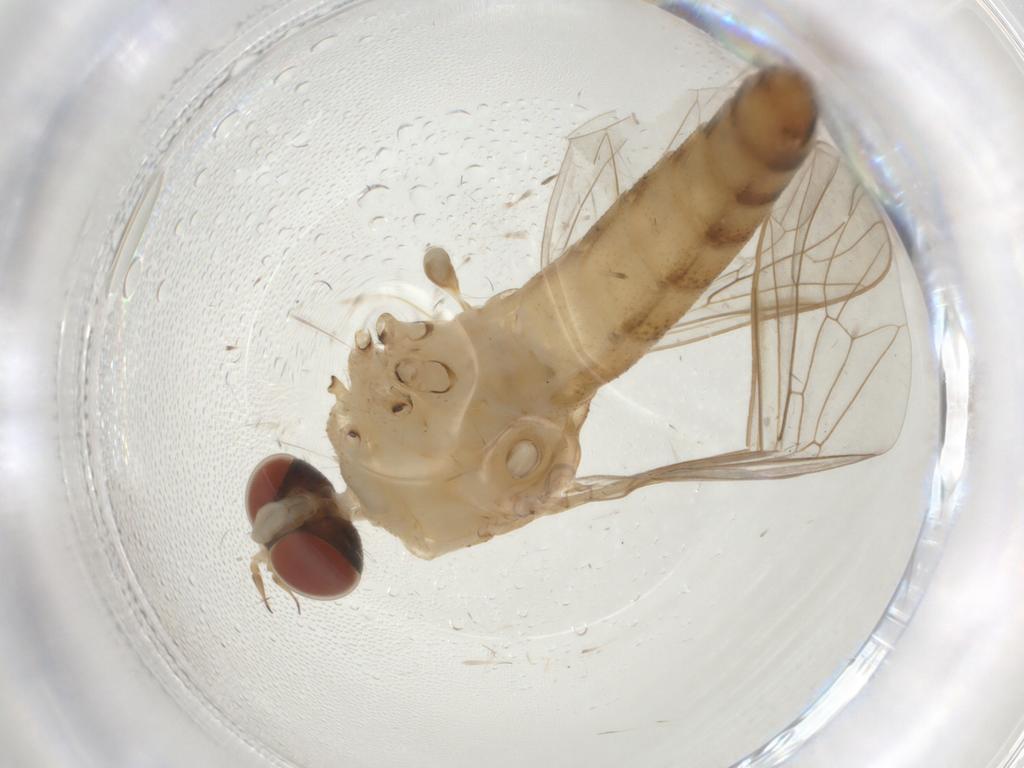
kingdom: Animalia
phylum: Arthropoda
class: Insecta
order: Diptera
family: Apsilocephalidae
